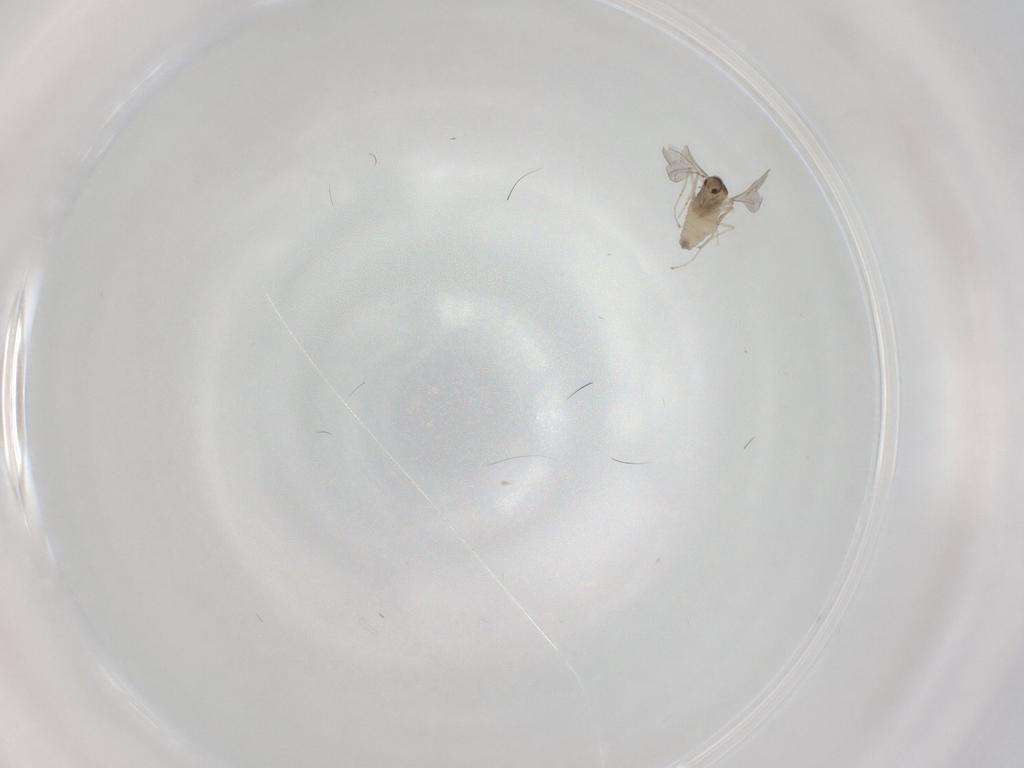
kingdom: Animalia
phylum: Arthropoda
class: Insecta
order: Diptera
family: Cecidomyiidae
